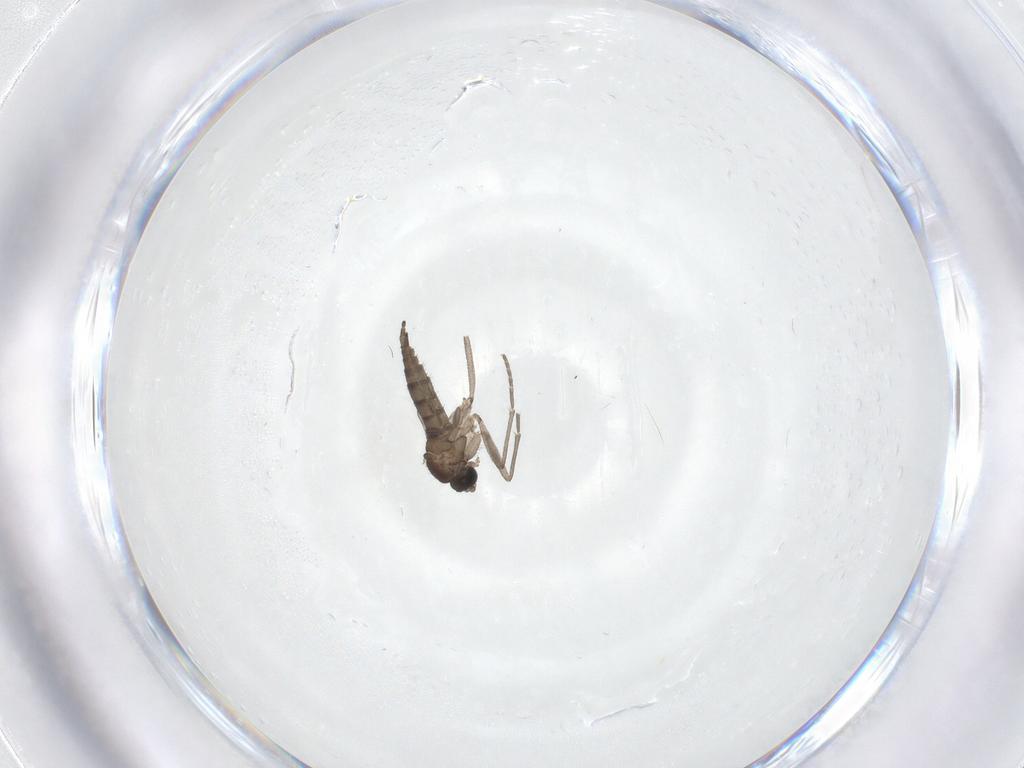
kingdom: Animalia
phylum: Arthropoda
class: Insecta
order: Diptera
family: Sciaridae
